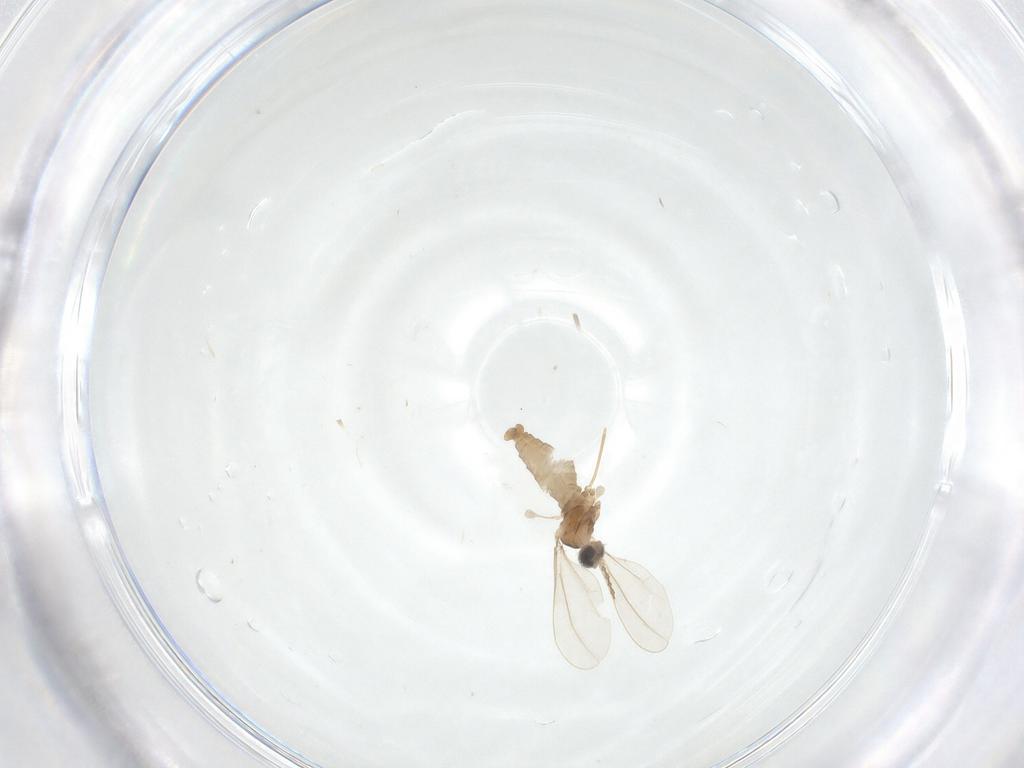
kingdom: Animalia
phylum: Arthropoda
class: Insecta
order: Diptera
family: Cecidomyiidae
